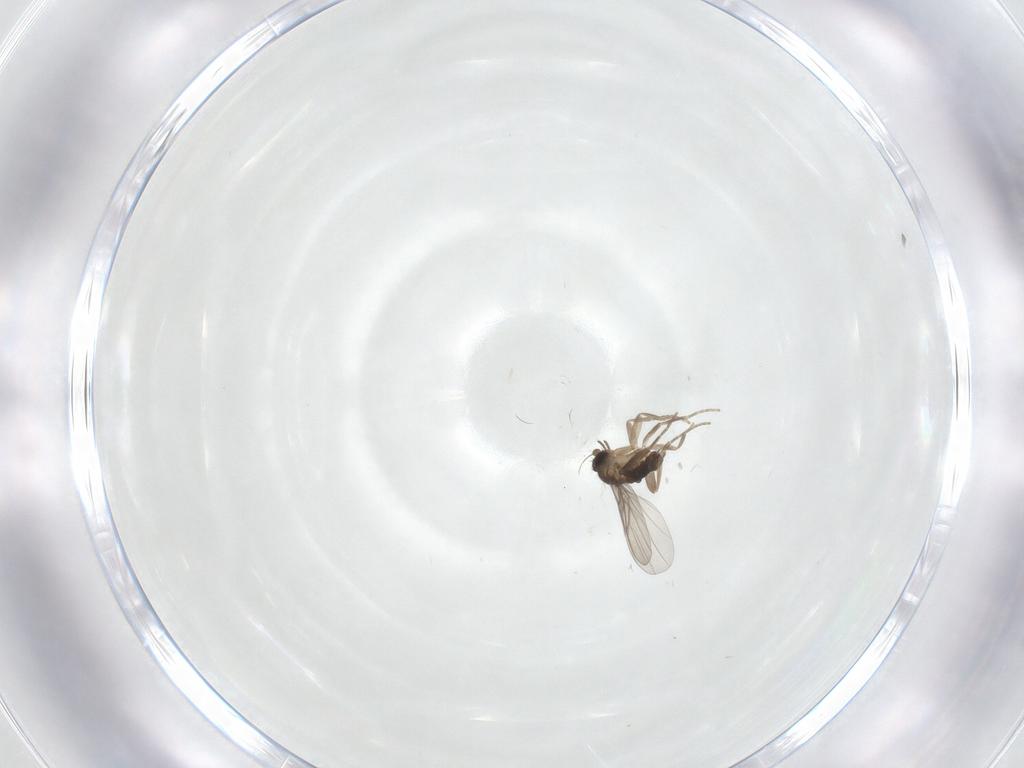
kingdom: Animalia
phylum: Arthropoda
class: Insecta
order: Diptera
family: Phoridae
